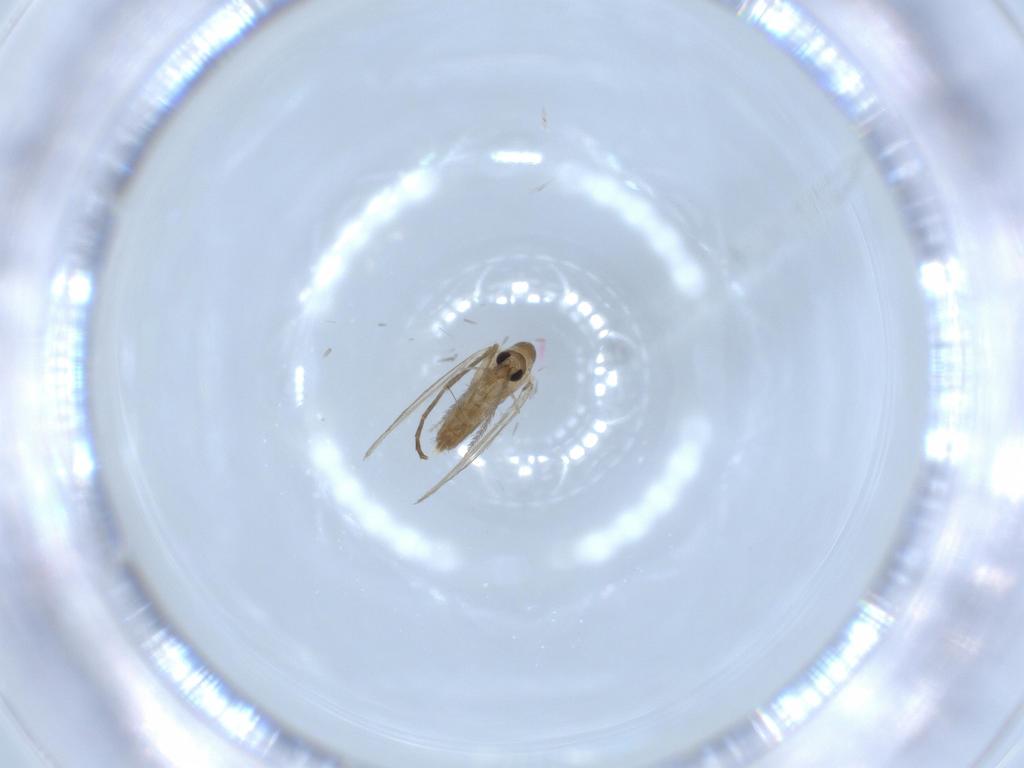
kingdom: Animalia
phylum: Arthropoda
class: Insecta
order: Diptera
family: Psychodidae
